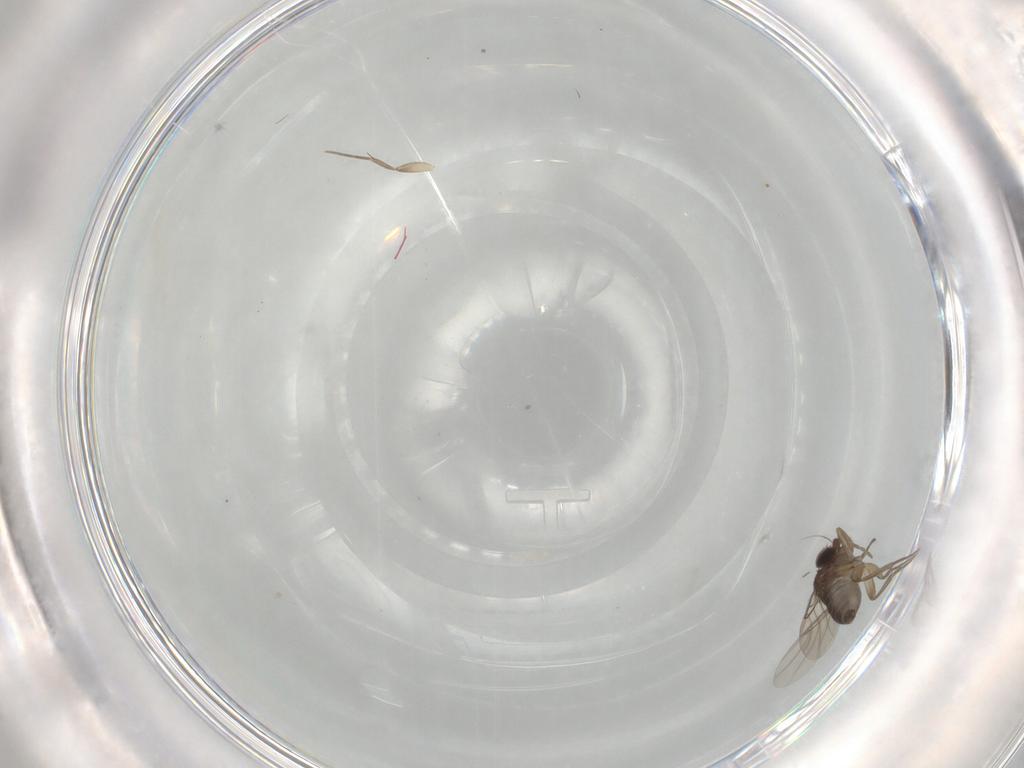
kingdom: Animalia
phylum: Arthropoda
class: Insecta
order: Diptera
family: Phoridae
